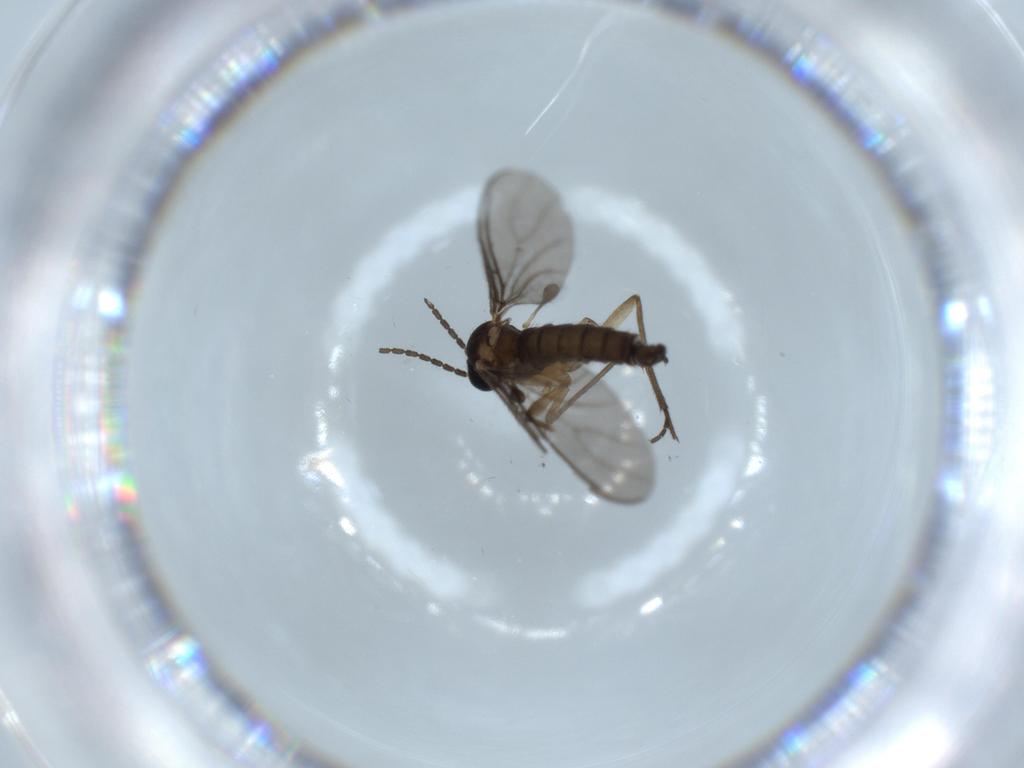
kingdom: Animalia
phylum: Arthropoda
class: Insecta
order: Diptera
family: Sciaridae
